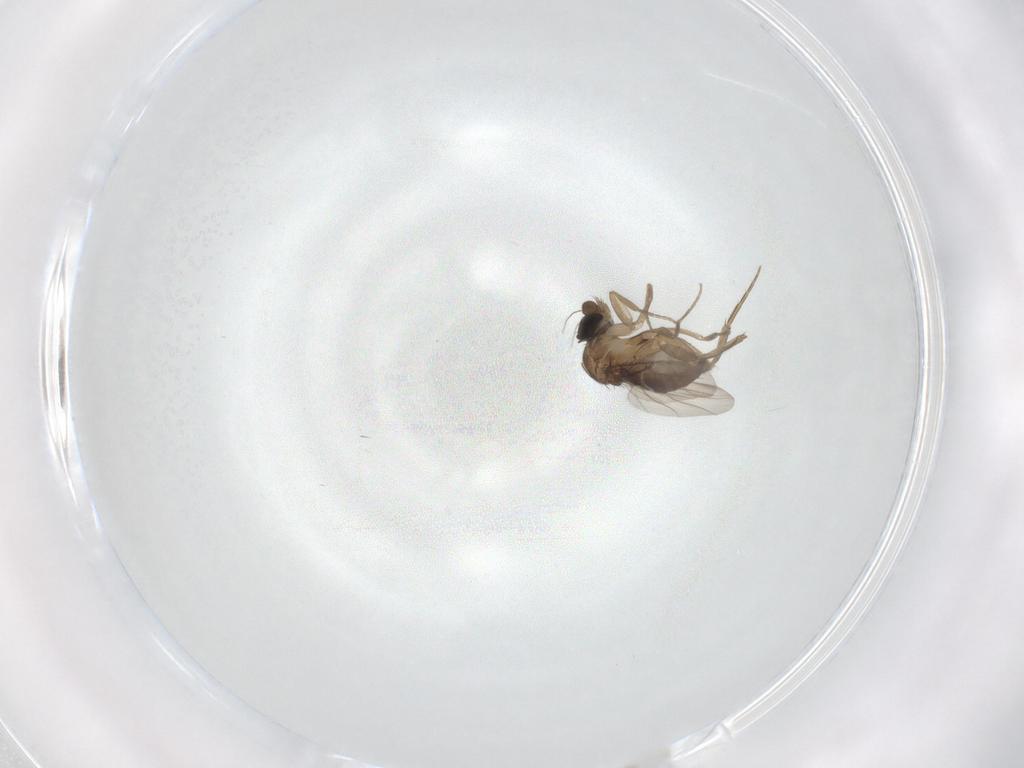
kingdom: Animalia
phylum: Arthropoda
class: Insecta
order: Diptera
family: Phoridae
